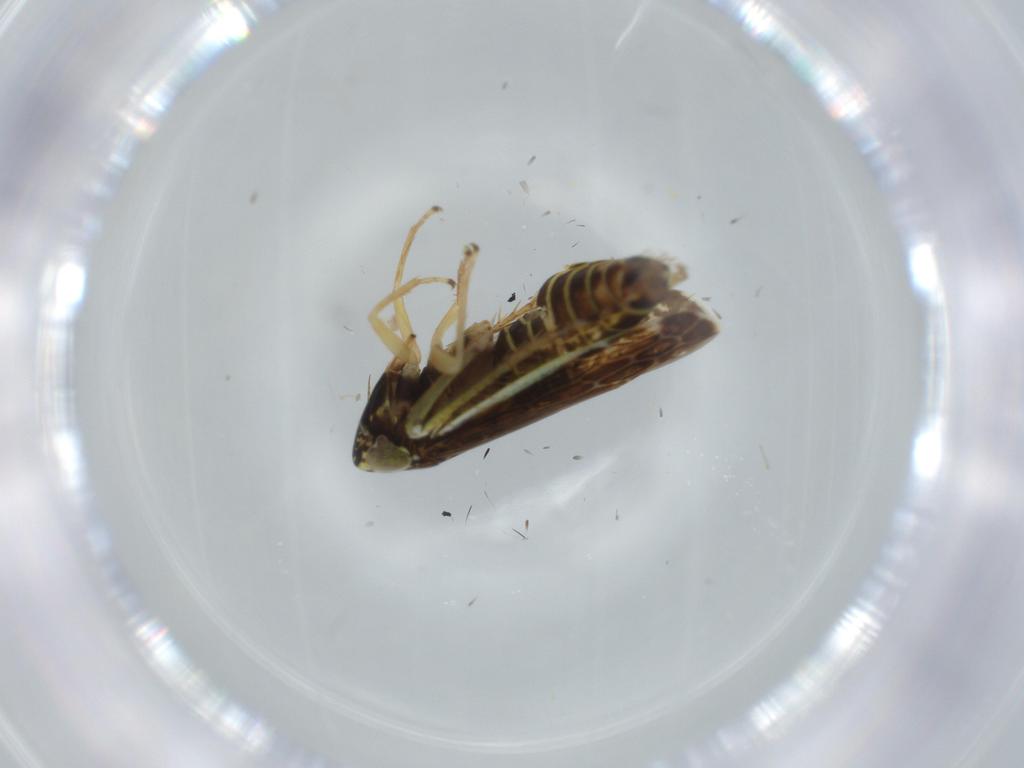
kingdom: Animalia
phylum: Arthropoda
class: Insecta
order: Hemiptera
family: Cicadellidae
